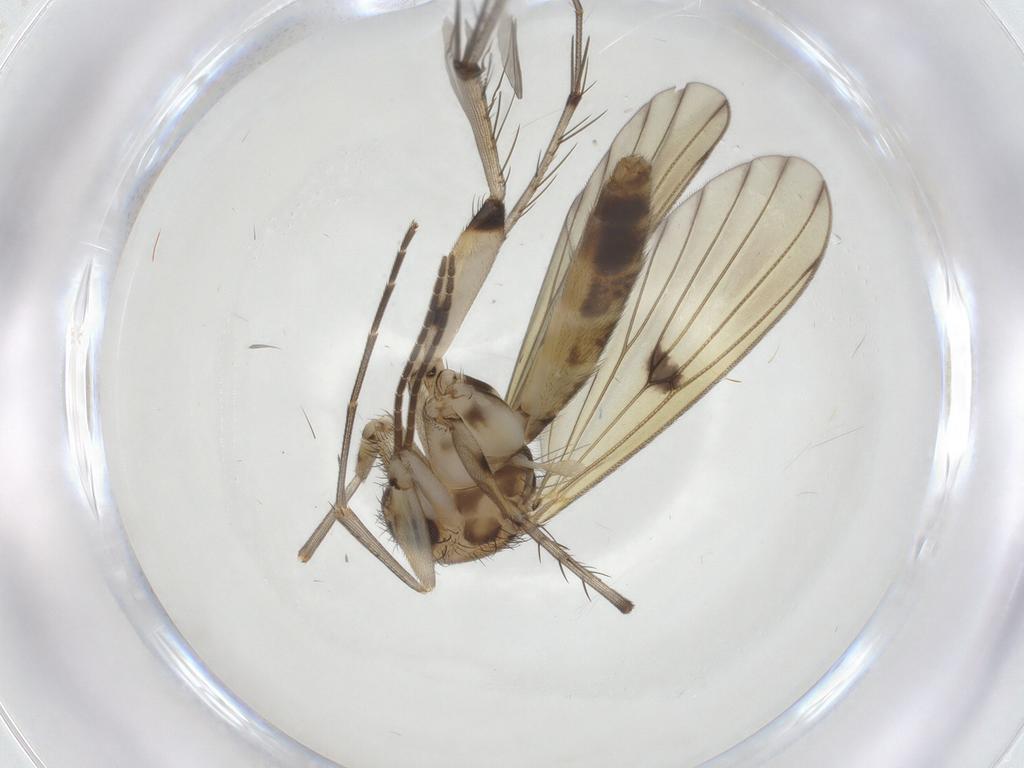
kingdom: Animalia
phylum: Arthropoda
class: Insecta
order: Diptera
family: Mycetophilidae
